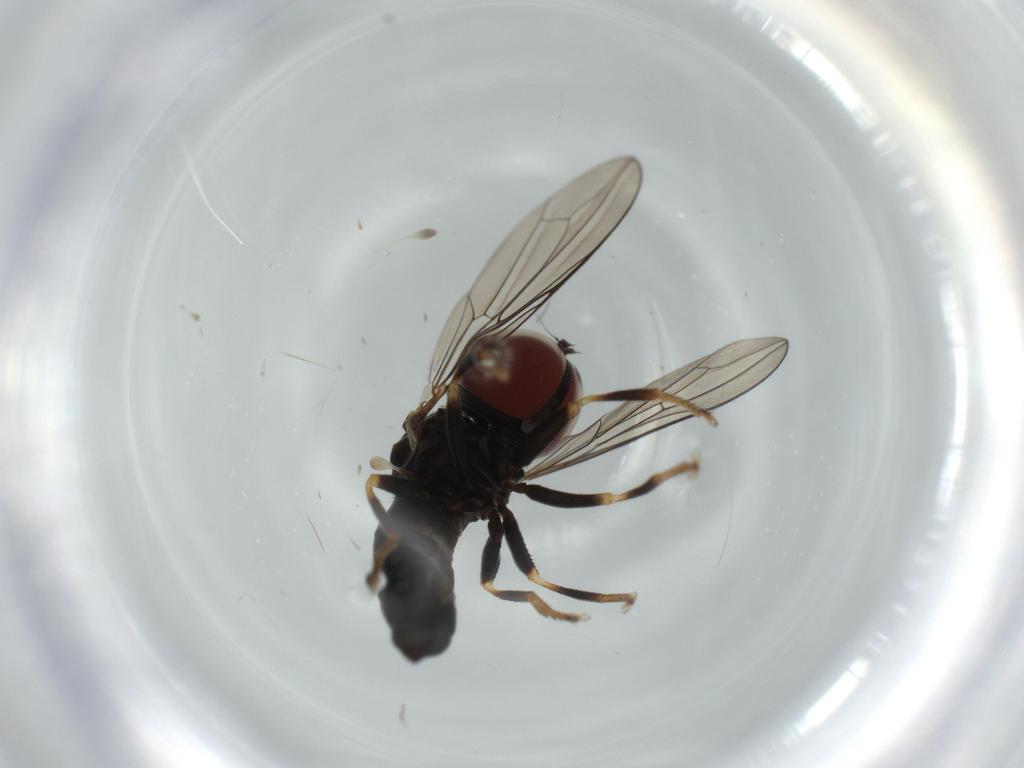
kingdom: Animalia
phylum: Arthropoda
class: Insecta
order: Diptera
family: Pipunculidae
